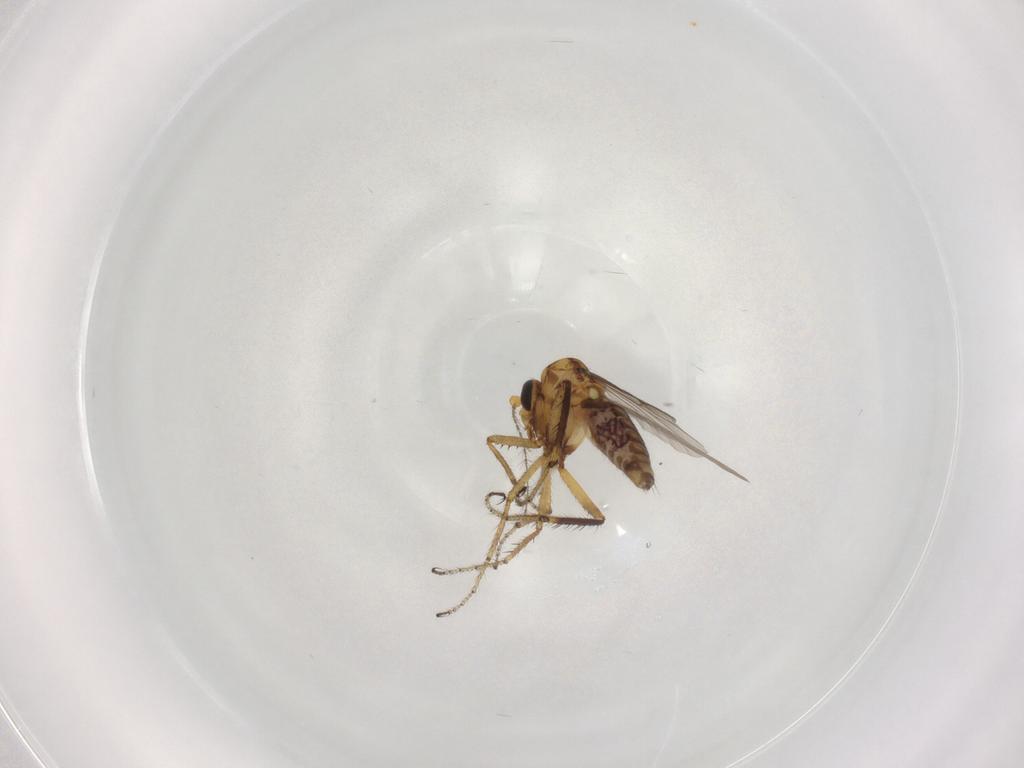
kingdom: Animalia
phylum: Arthropoda
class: Insecta
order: Diptera
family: Ceratopogonidae
